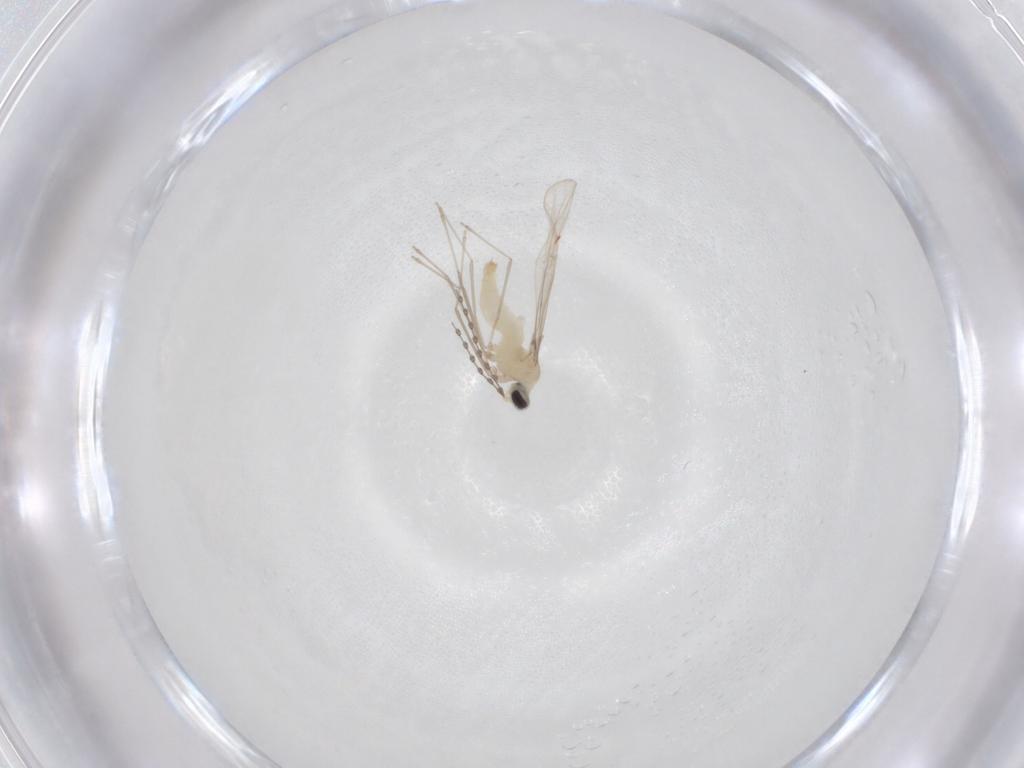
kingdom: Animalia
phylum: Arthropoda
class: Insecta
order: Diptera
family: Cecidomyiidae
